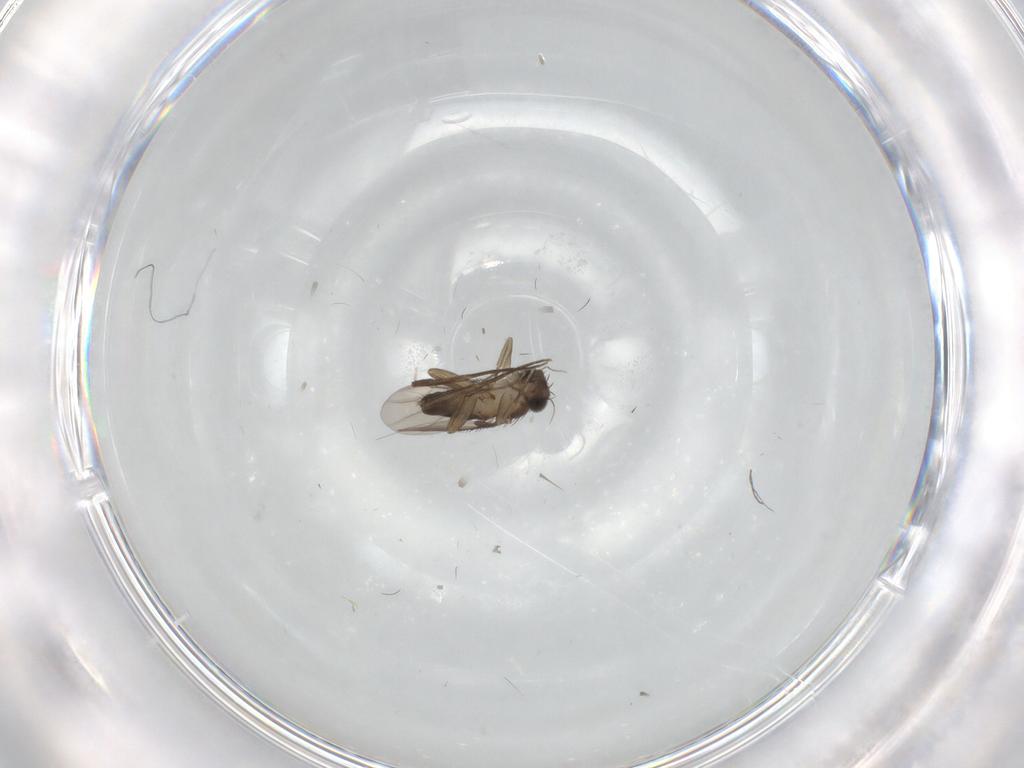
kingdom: Animalia
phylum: Arthropoda
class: Insecta
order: Diptera
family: Phoridae
